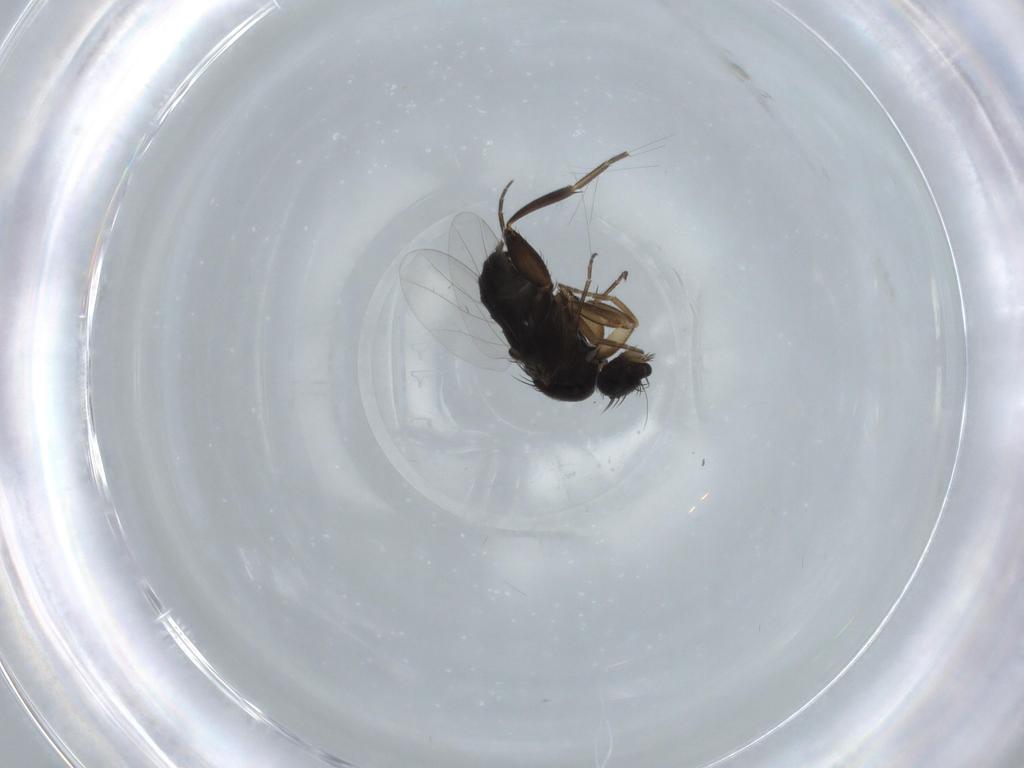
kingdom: Animalia
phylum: Arthropoda
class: Insecta
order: Diptera
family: Phoridae
